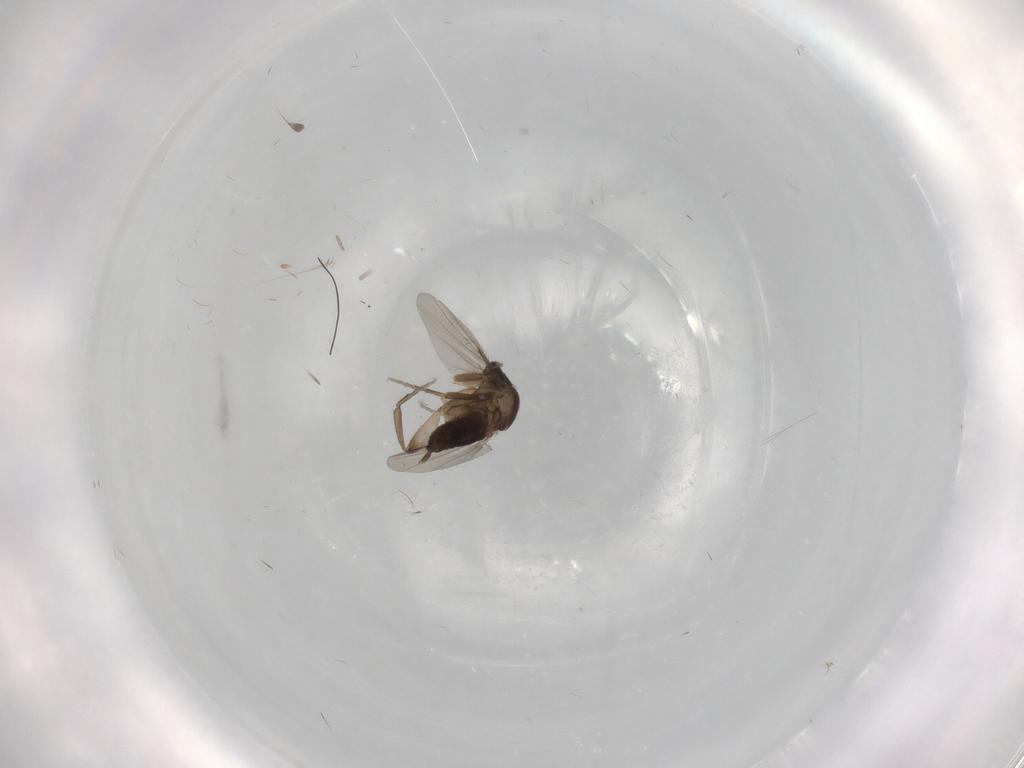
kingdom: Animalia
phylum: Arthropoda
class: Insecta
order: Diptera
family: Phoridae
